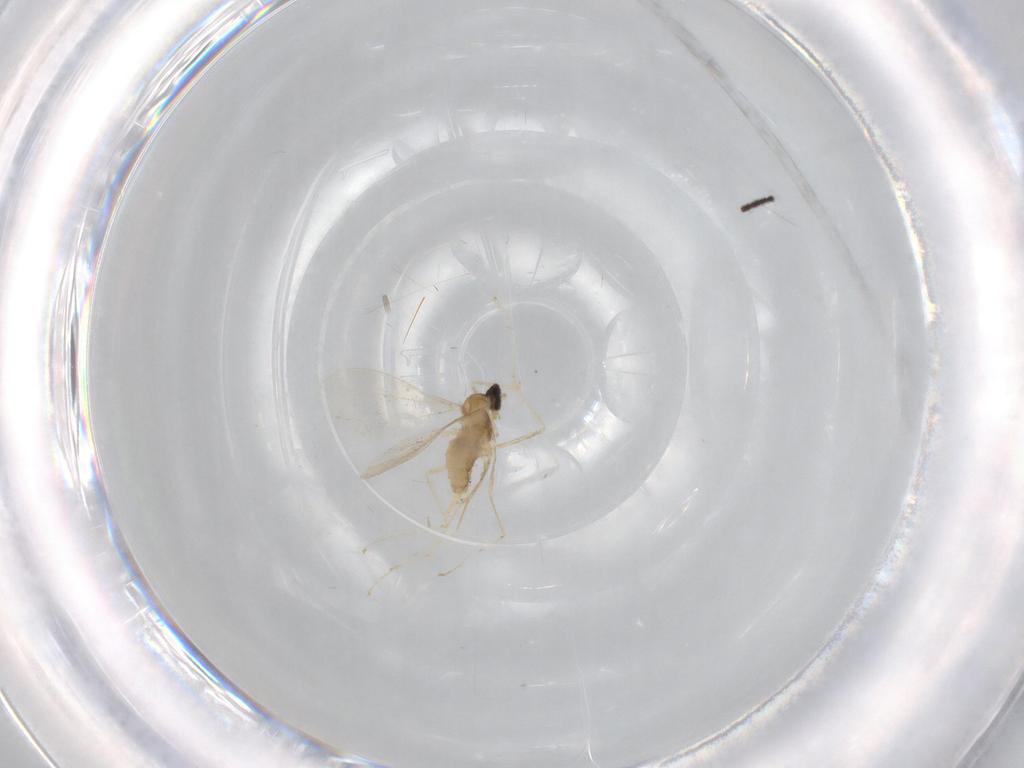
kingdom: Animalia
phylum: Arthropoda
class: Insecta
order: Diptera
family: Cecidomyiidae
